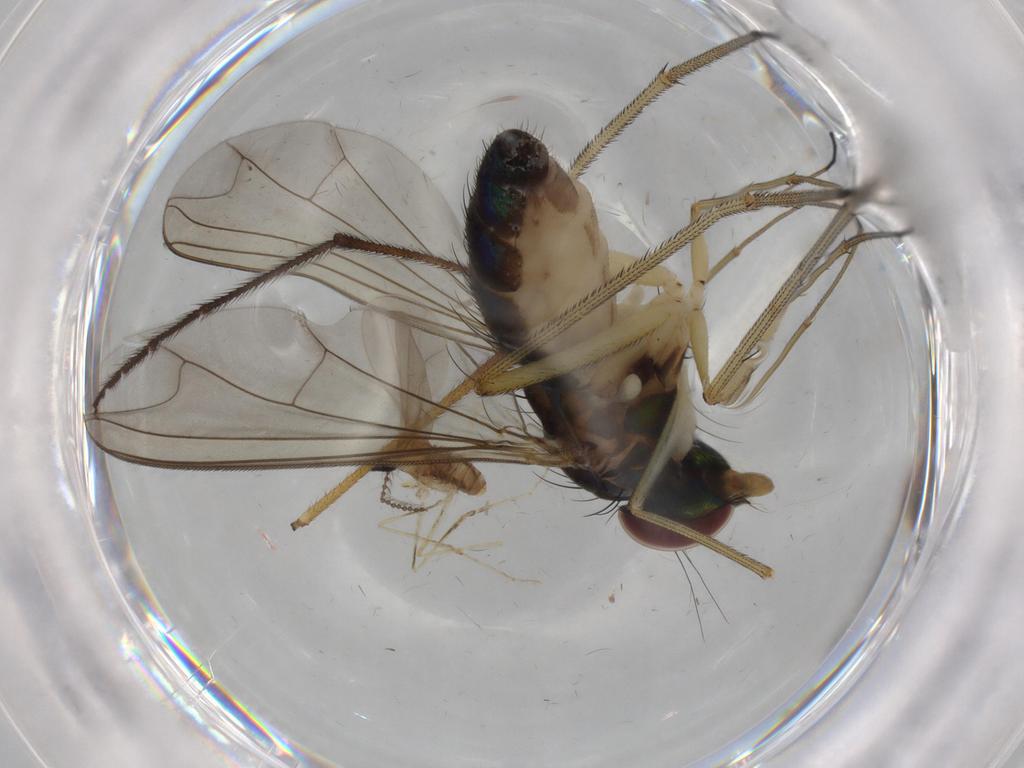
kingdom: Animalia
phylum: Arthropoda
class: Insecta
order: Diptera
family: Dolichopodidae
